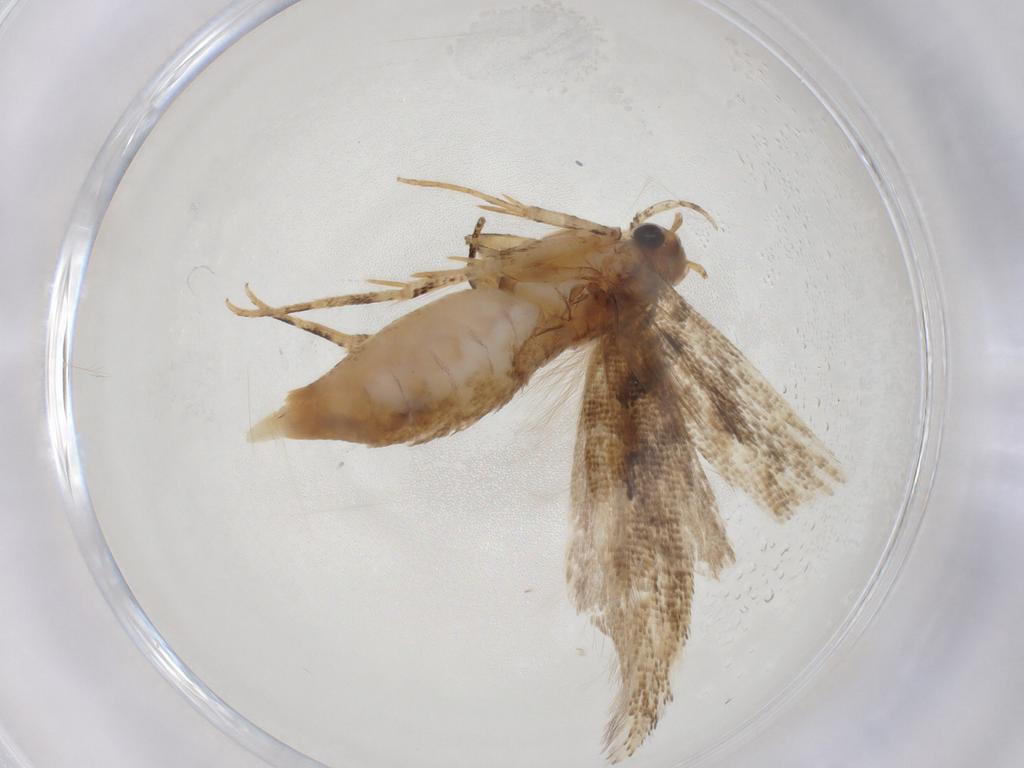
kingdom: Animalia
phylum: Arthropoda
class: Insecta
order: Lepidoptera
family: Gelechiidae
